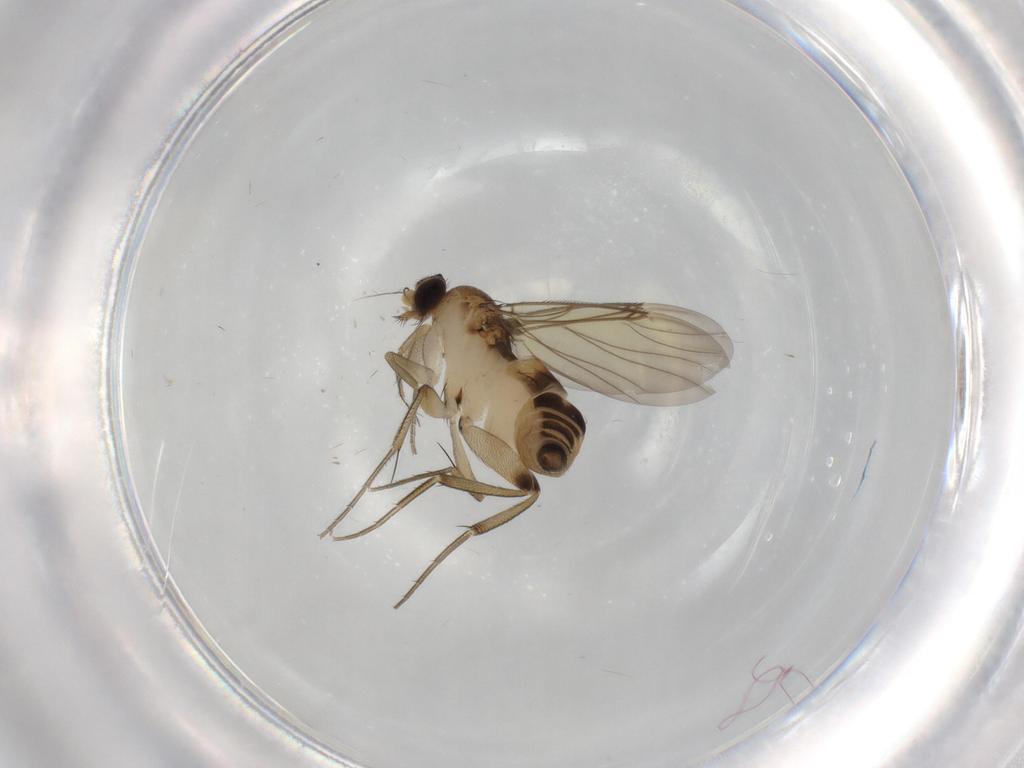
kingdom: Animalia
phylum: Arthropoda
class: Insecta
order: Diptera
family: Phoridae
